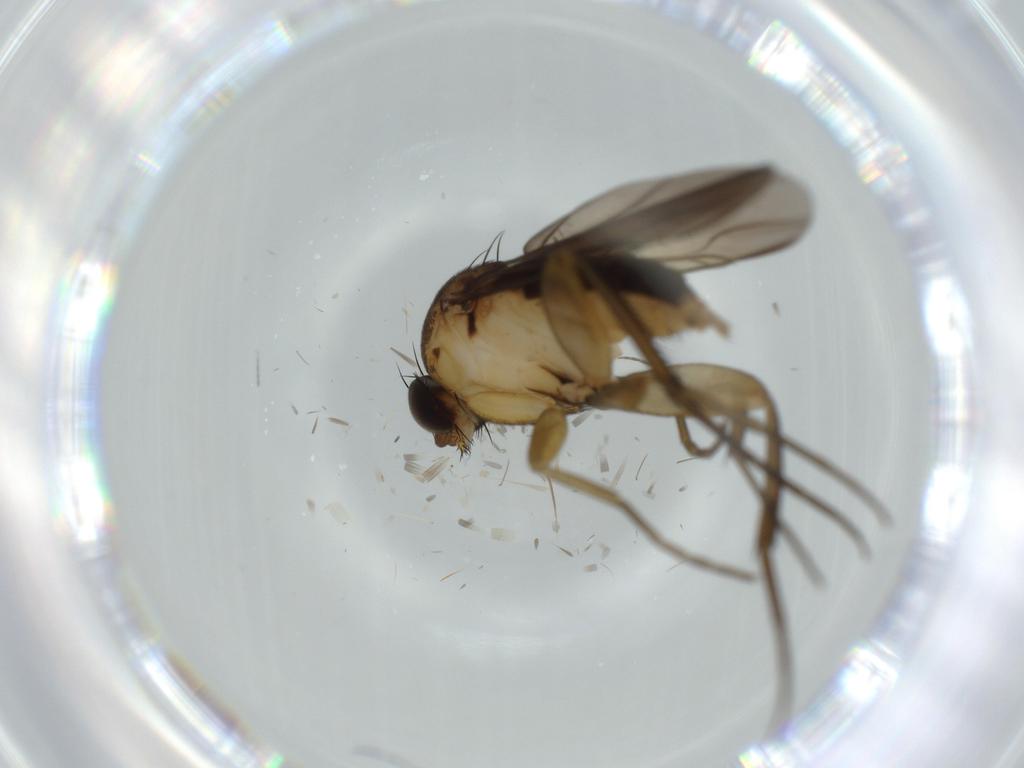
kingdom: Animalia
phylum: Arthropoda
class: Insecta
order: Diptera
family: Phoridae
